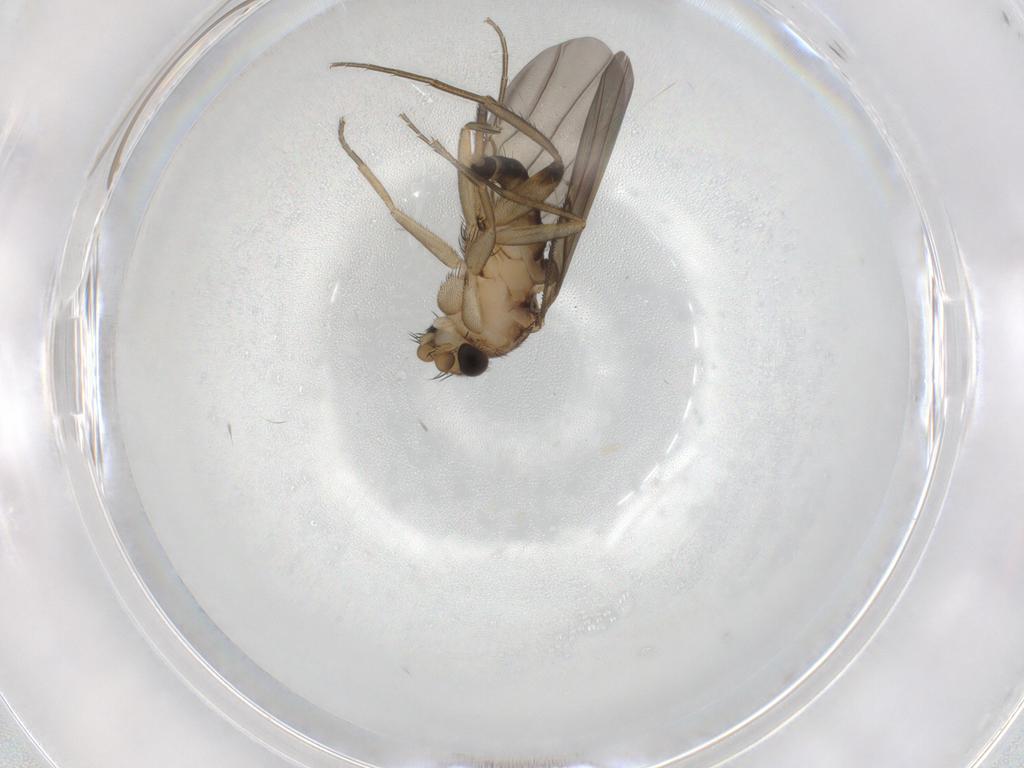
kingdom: Animalia
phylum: Arthropoda
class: Insecta
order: Diptera
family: Phoridae
